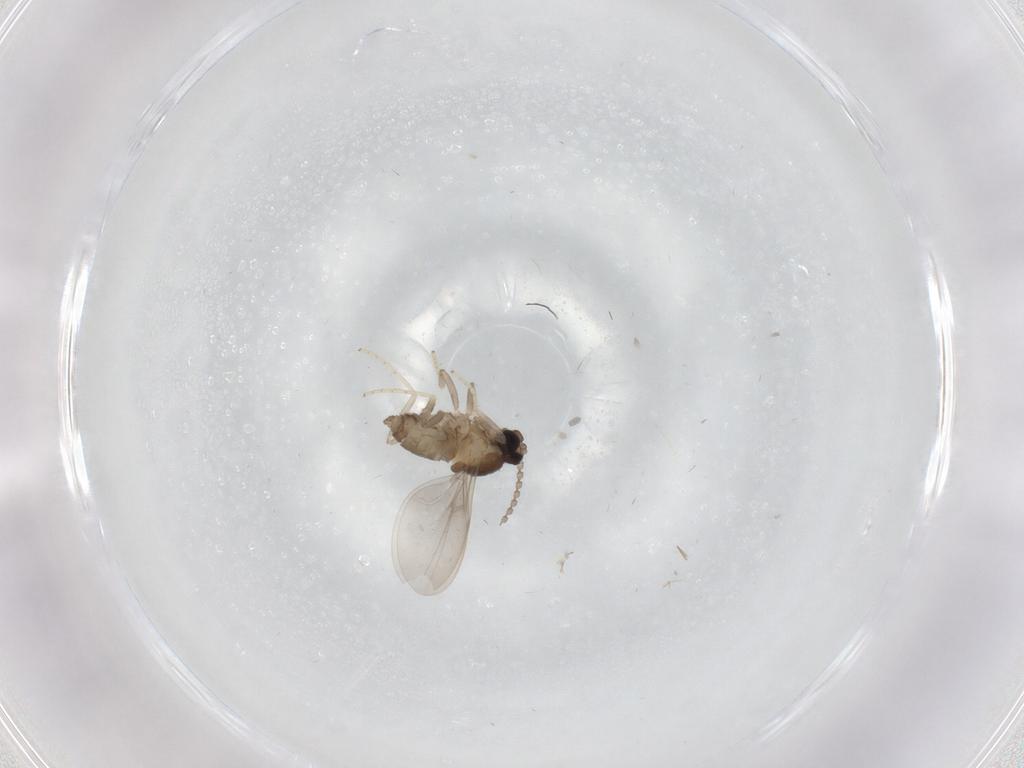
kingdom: Animalia
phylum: Arthropoda
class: Insecta
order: Diptera
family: Cecidomyiidae
